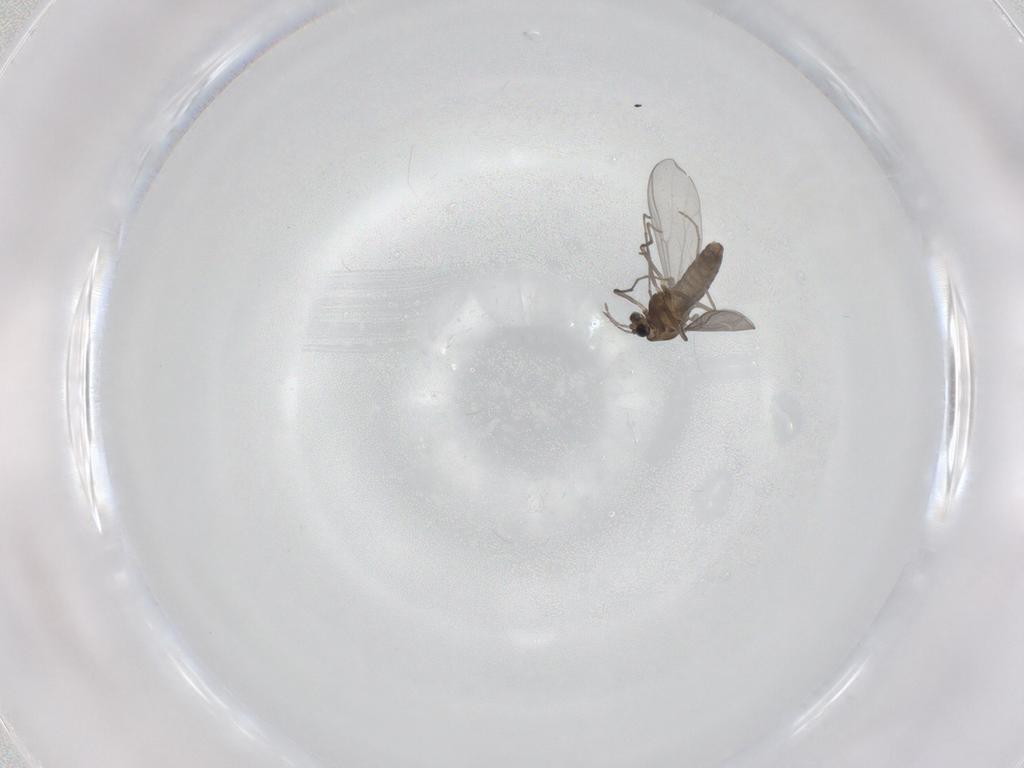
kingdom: Animalia
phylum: Arthropoda
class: Insecta
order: Diptera
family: Chironomidae
